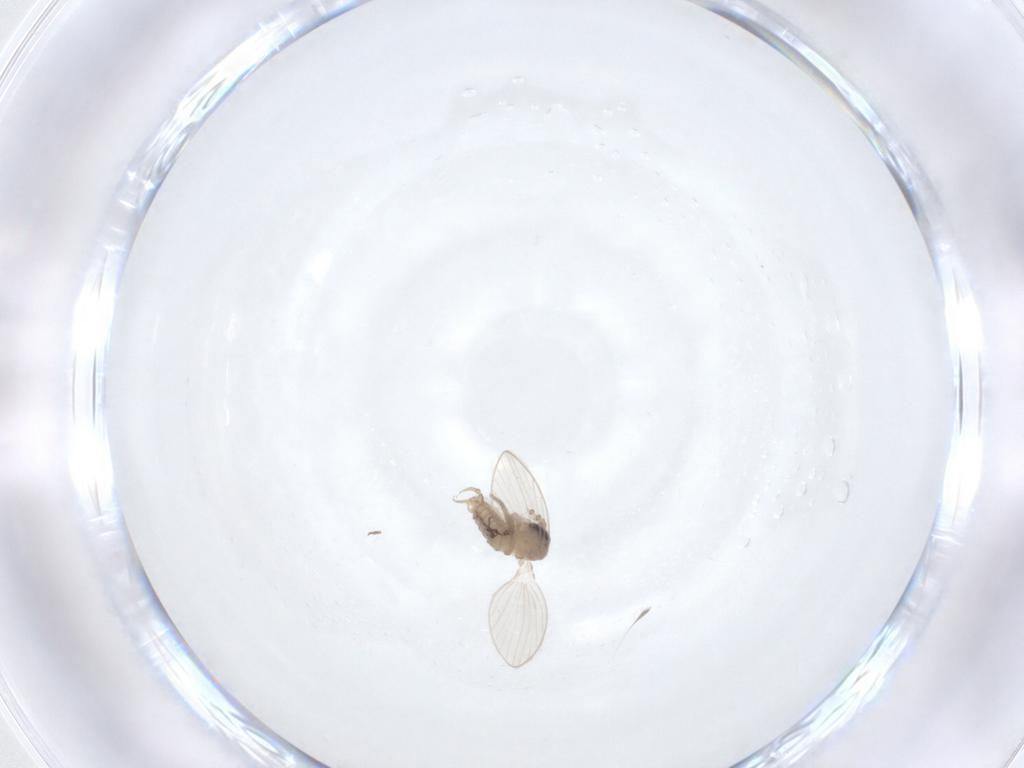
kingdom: Animalia
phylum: Arthropoda
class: Insecta
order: Diptera
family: Psychodidae
